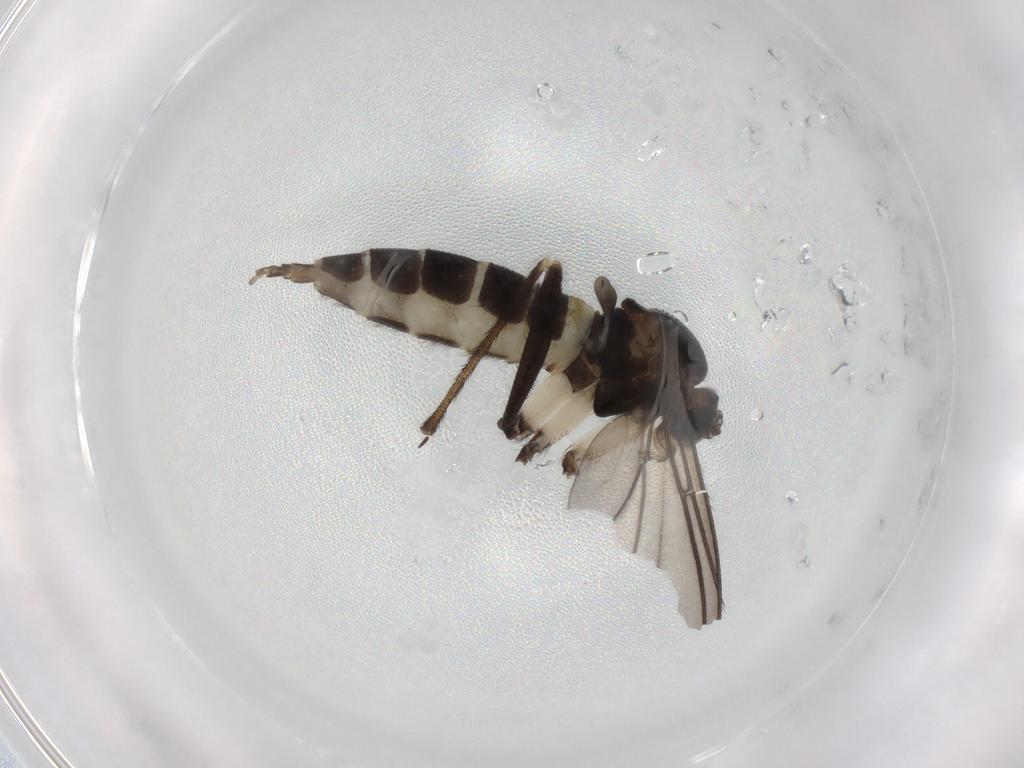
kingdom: Animalia
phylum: Arthropoda
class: Insecta
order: Diptera
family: Sciaridae
